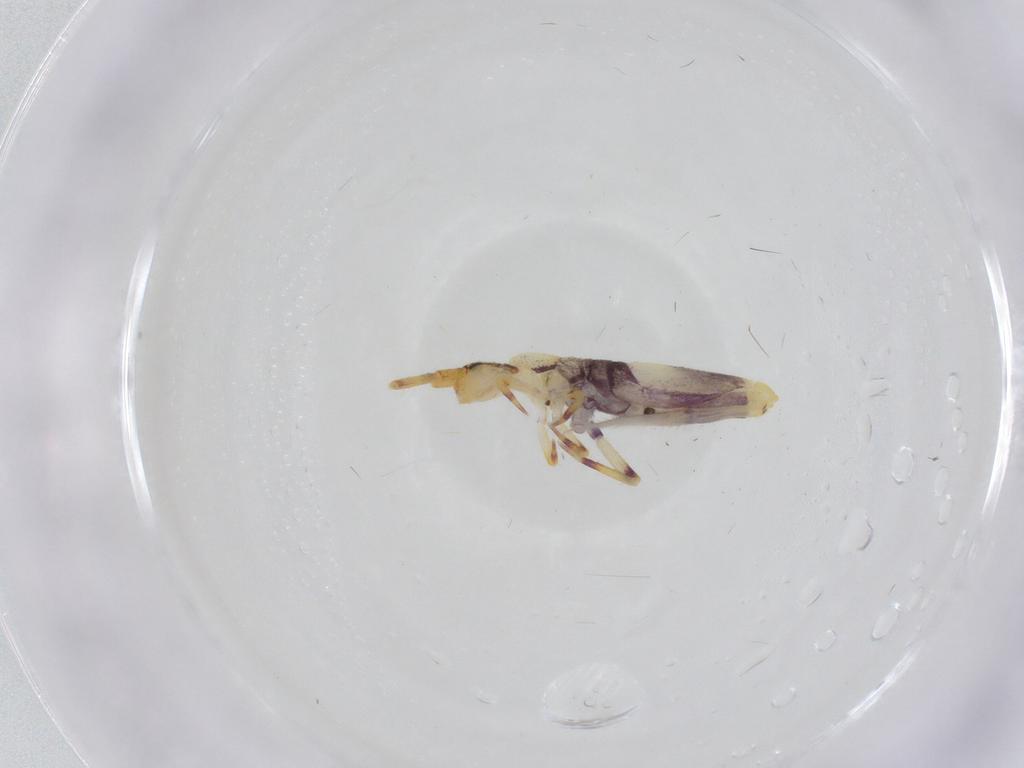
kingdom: Animalia
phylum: Arthropoda
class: Collembola
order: Entomobryomorpha
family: Entomobryidae
